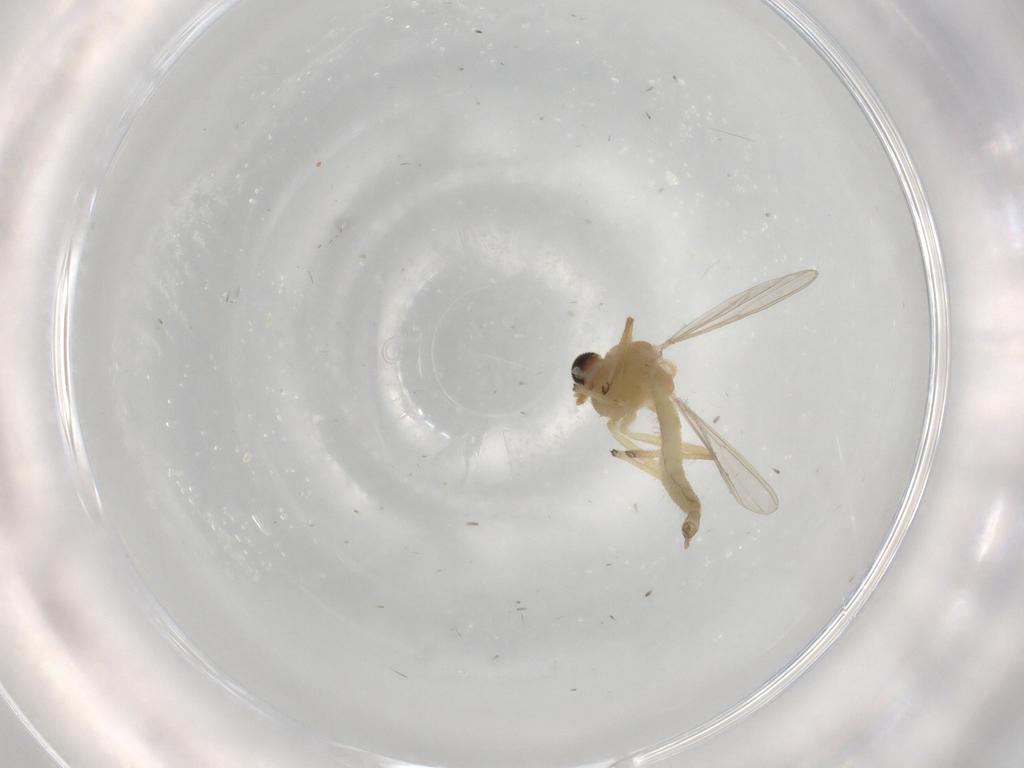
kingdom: Animalia
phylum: Arthropoda
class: Insecta
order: Diptera
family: Chironomidae
